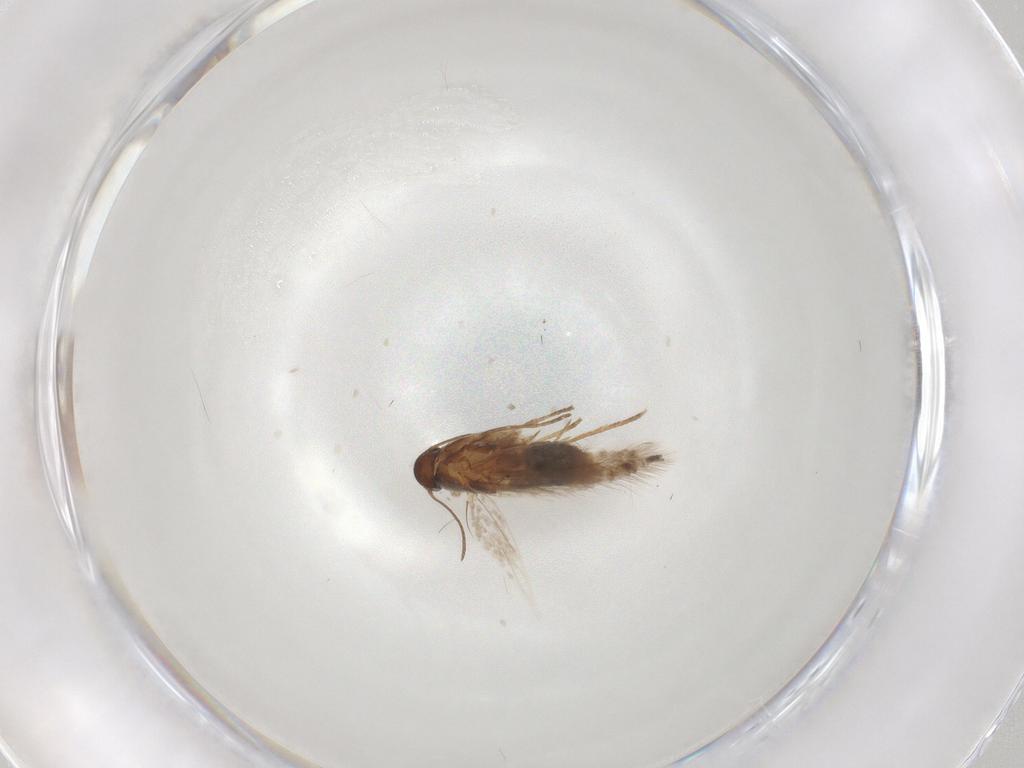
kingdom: Animalia
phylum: Arthropoda
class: Insecta
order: Lepidoptera
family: Heliozelidae
